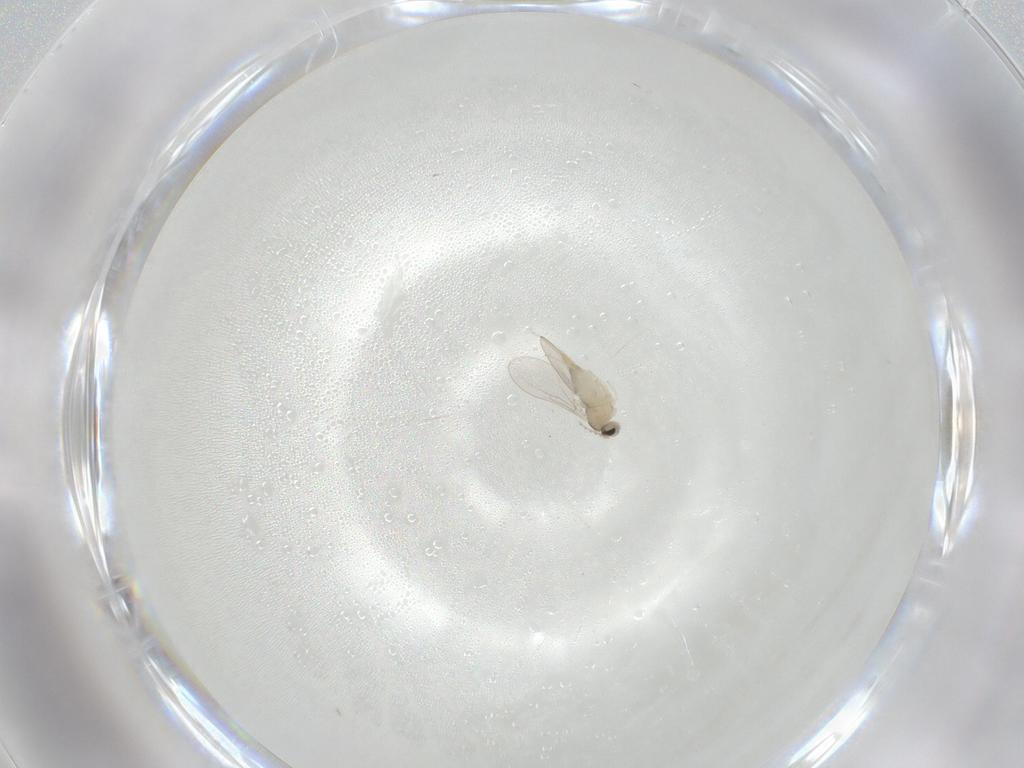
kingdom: Animalia
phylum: Arthropoda
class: Insecta
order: Diptera
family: Cecidomyiidae
